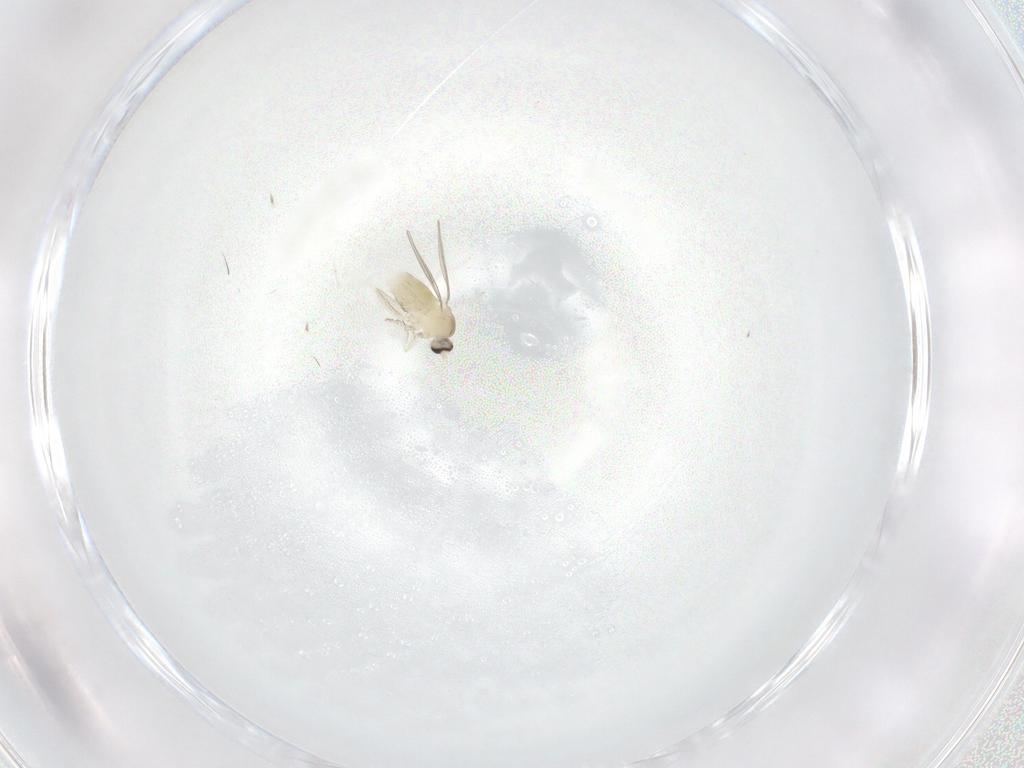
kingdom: Animalia
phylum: Arthropoda
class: Insecta
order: Diptera
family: Cecidomyiidae
